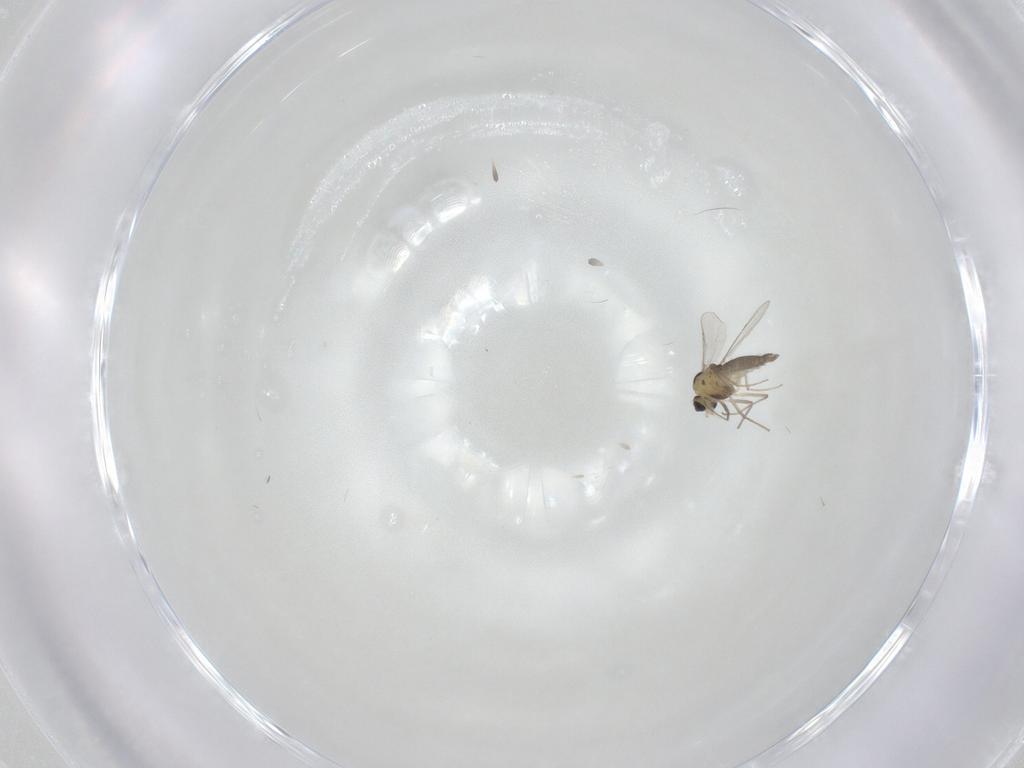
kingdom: Animalia
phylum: Arthropoda
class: Insecta
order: Diptera
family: Chironomidae
